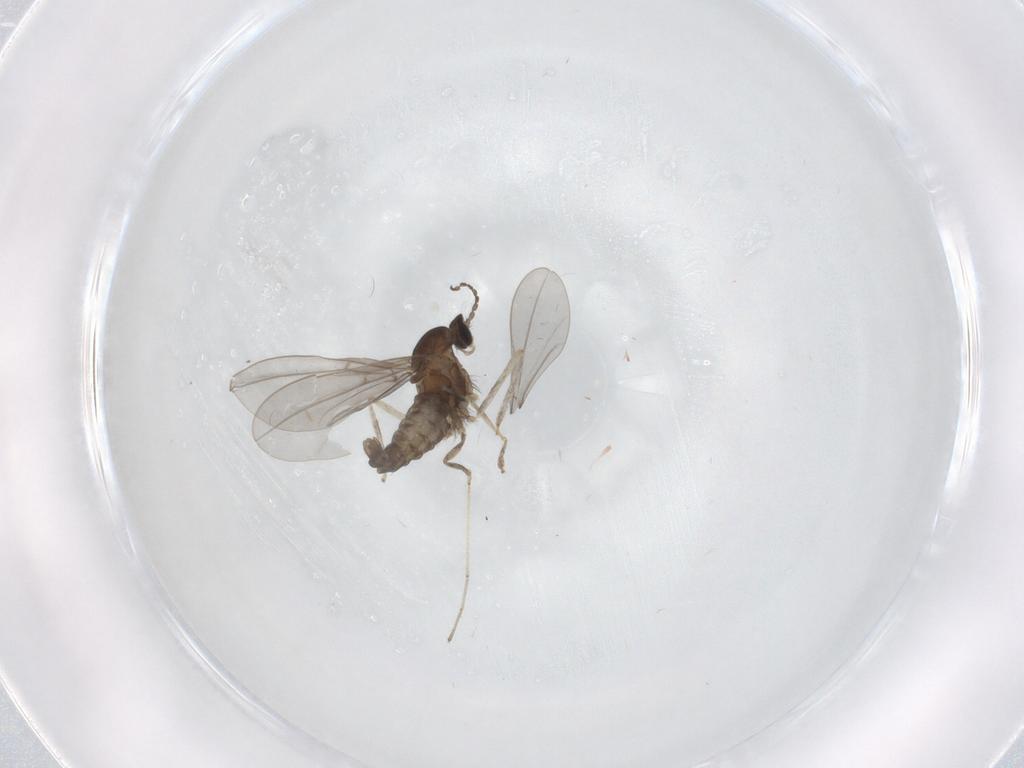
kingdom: Animalia
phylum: Arthropoda
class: Insecta
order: Diptera
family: Cecidomyiidae
